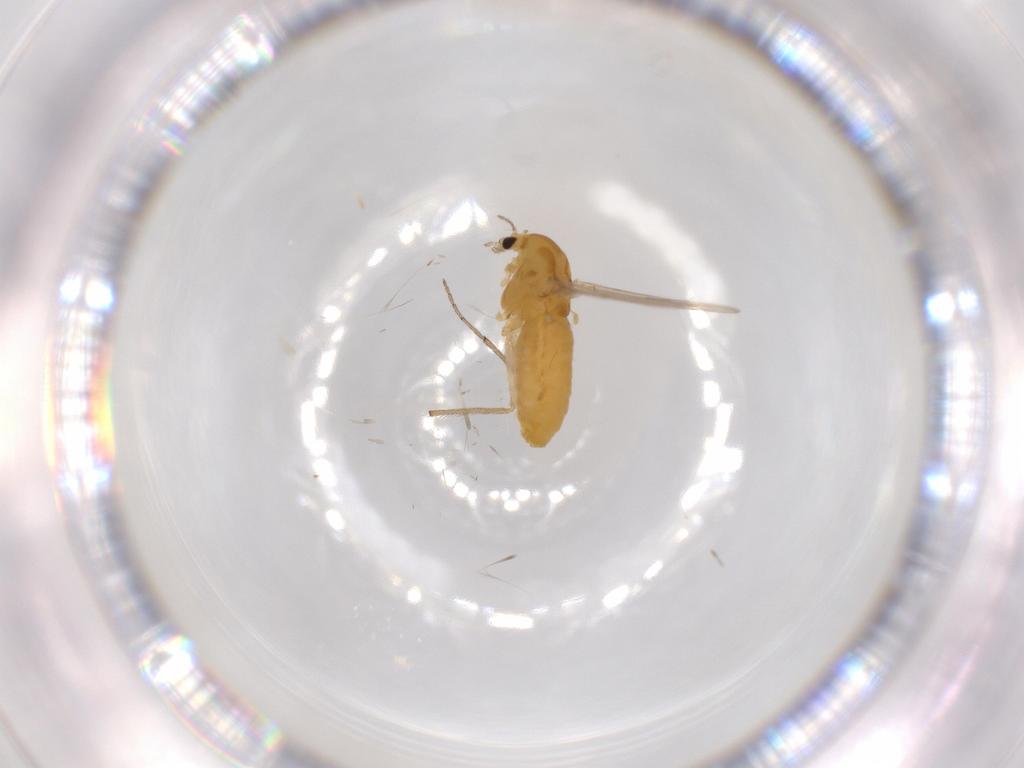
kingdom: Animalia
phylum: Arthropoda
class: Insecta
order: Diptera
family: Chironomidae
